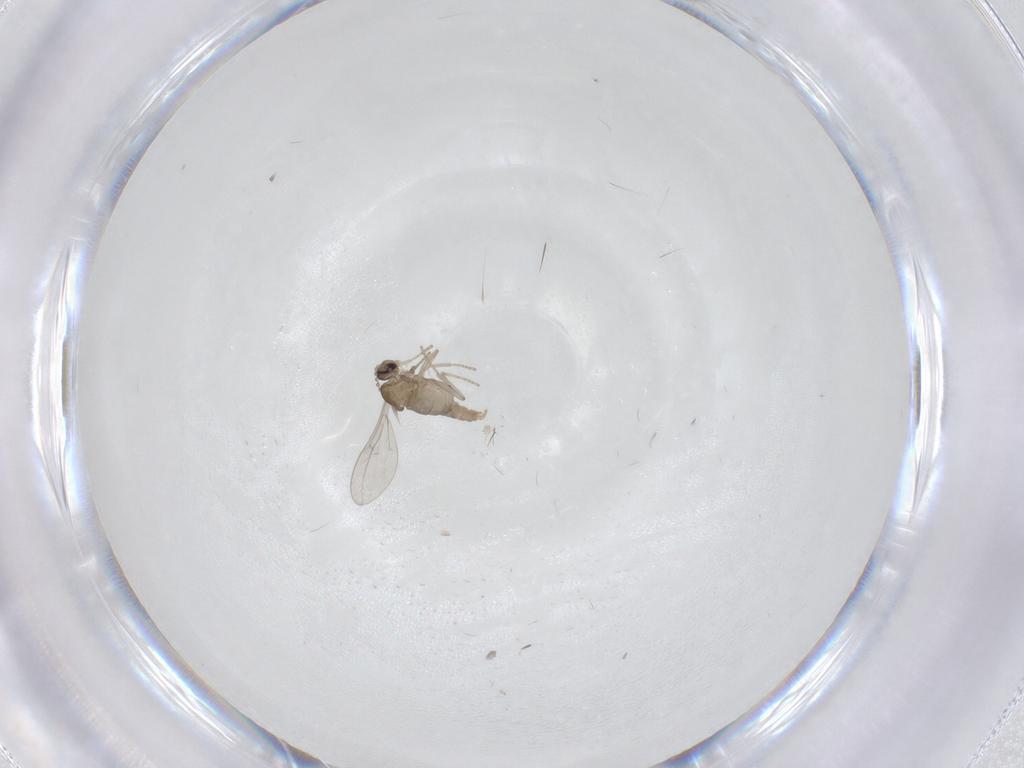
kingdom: Animalia
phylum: Arthropoda
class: Insecta
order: Diptera
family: Cecidomyiidae
